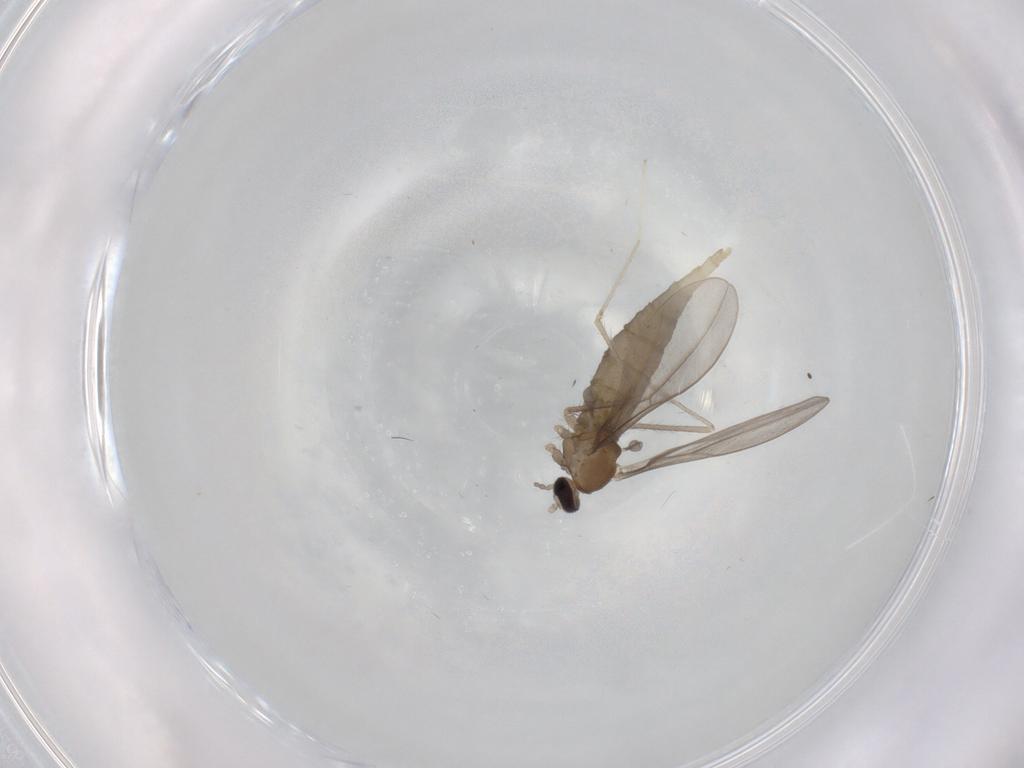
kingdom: Animalia
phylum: Arthropoda
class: Insecta
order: Diptera
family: Cecidomyiidae
